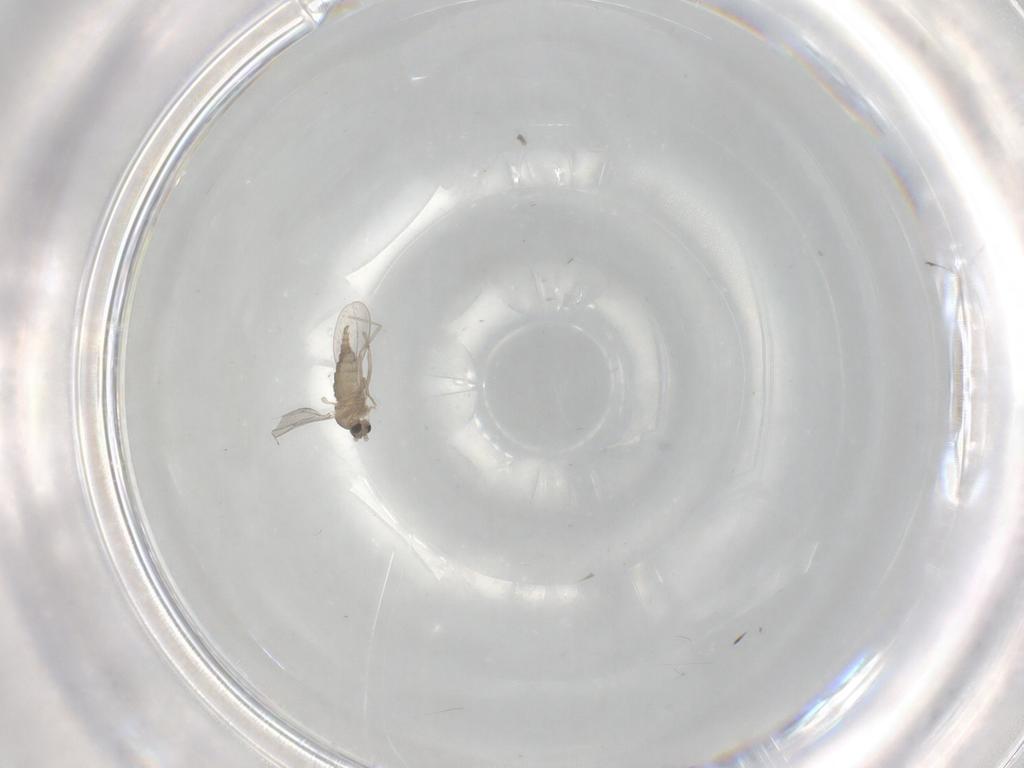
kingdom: Animalia
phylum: Arthropoda
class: Insecta
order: Diptera
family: Cecidomyiidae
